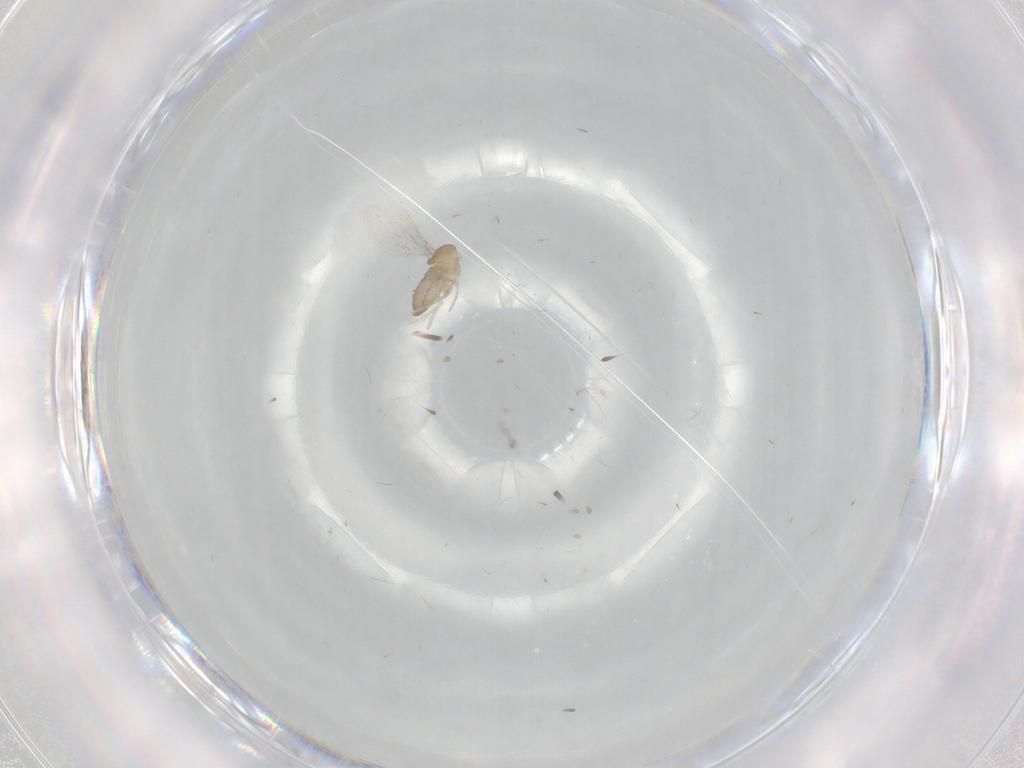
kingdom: Animalia
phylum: Arthropoda
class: Insecta
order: Diptera
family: Cecidomyiidae
